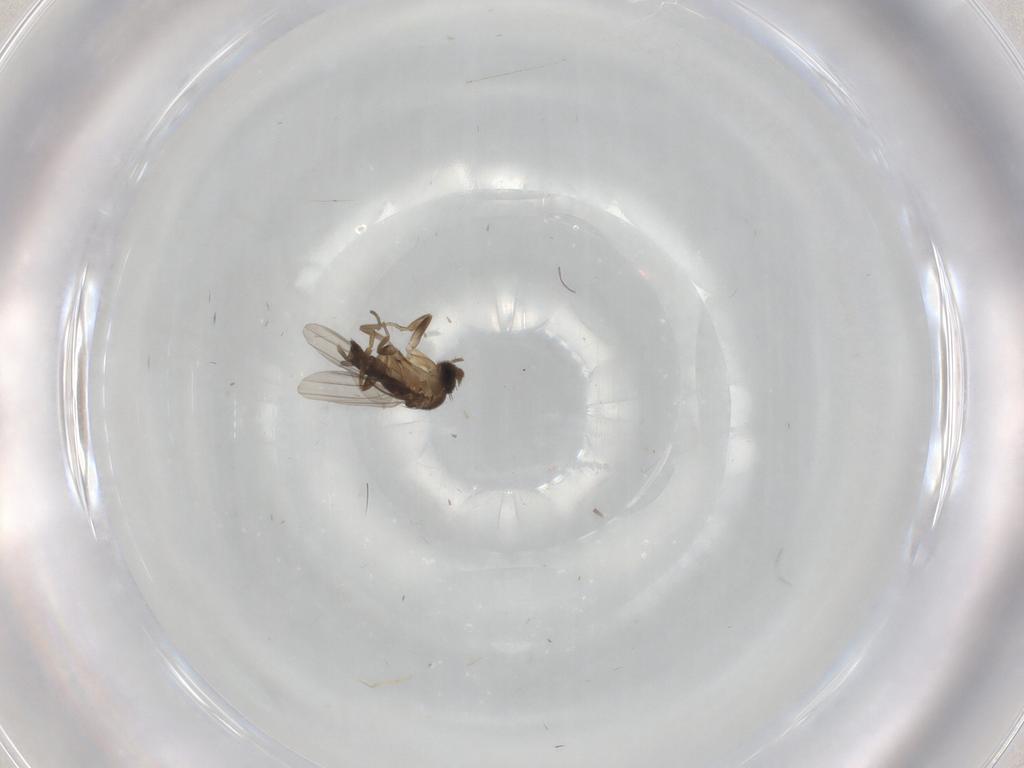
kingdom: Animalia
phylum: Arthropoda
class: Insecta
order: Diptera
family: Phoridae
